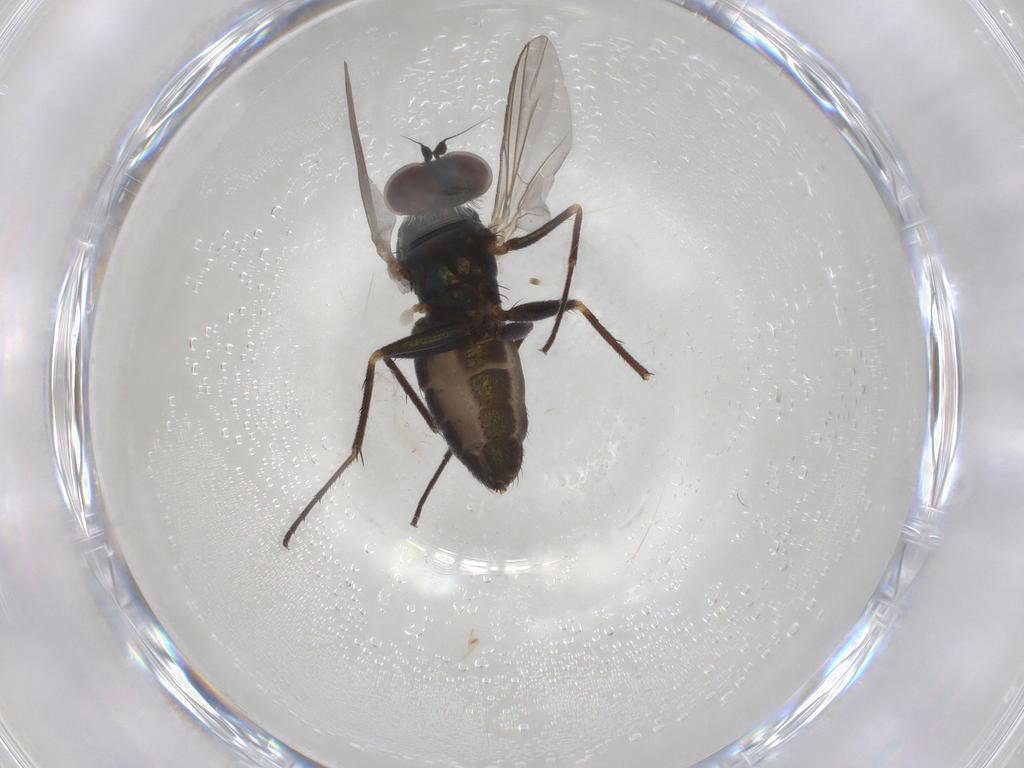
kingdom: Animalia
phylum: Arthropoda
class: Insecta
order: Diptera
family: Dolichopodidae
